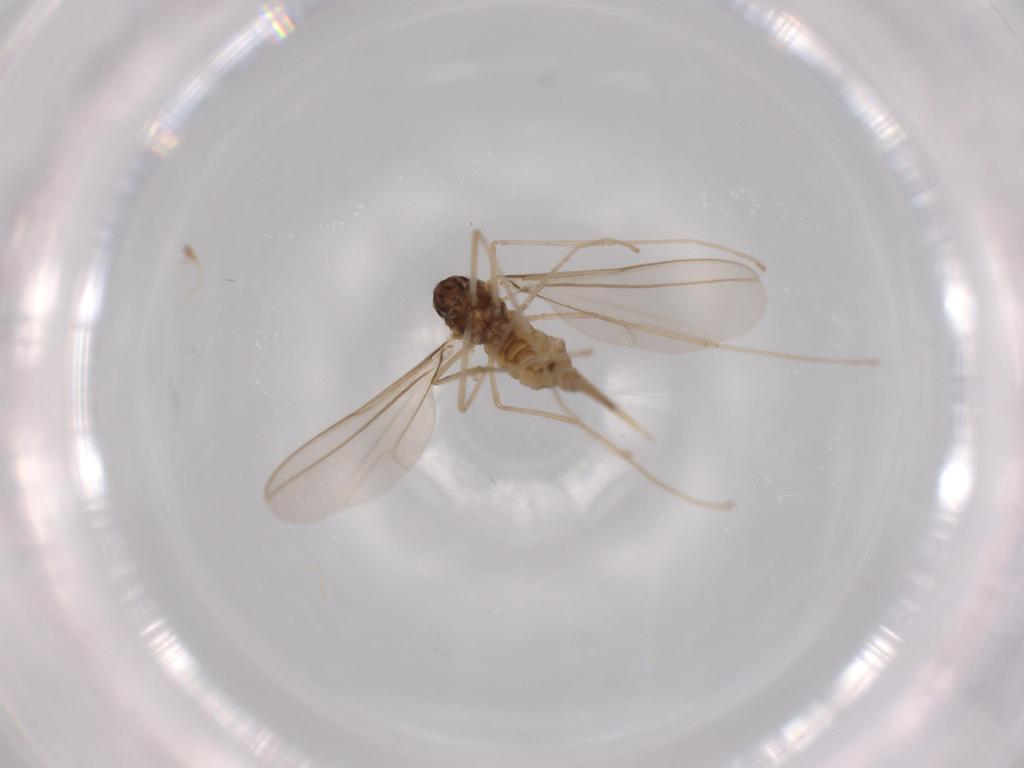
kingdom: Animalia
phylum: Arthropoda
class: Insecta
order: Diptera
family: Cecidomyiidae
